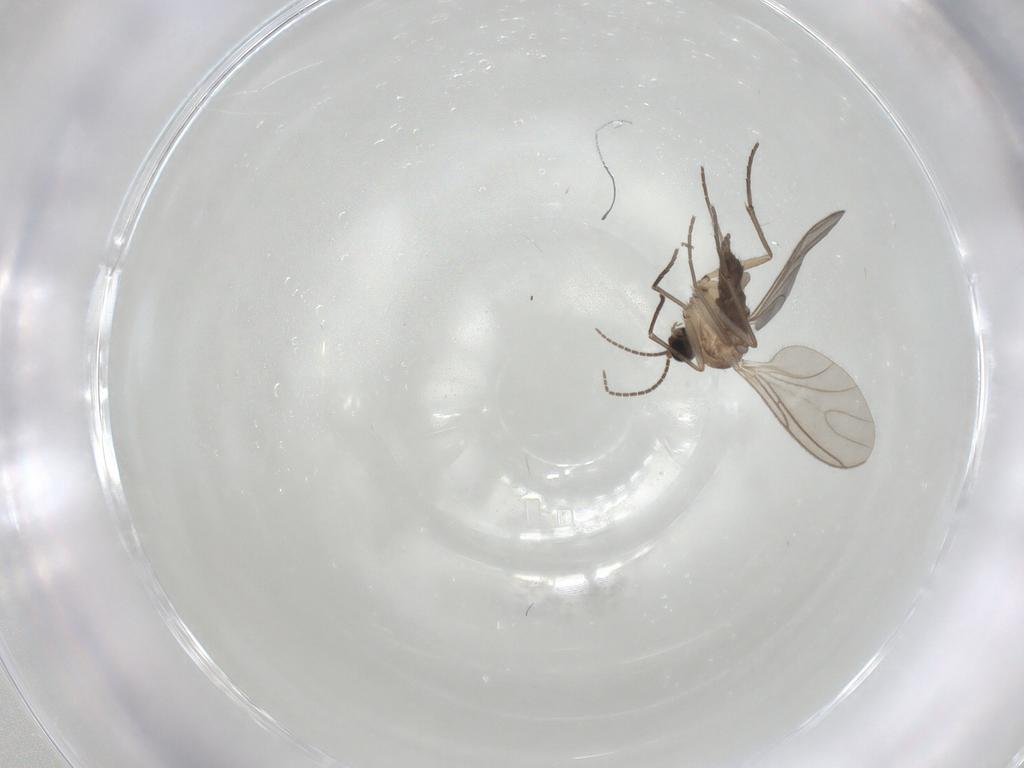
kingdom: Animalia
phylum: Arthropoda
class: Insecta
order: Diptera
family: Sciaridae
